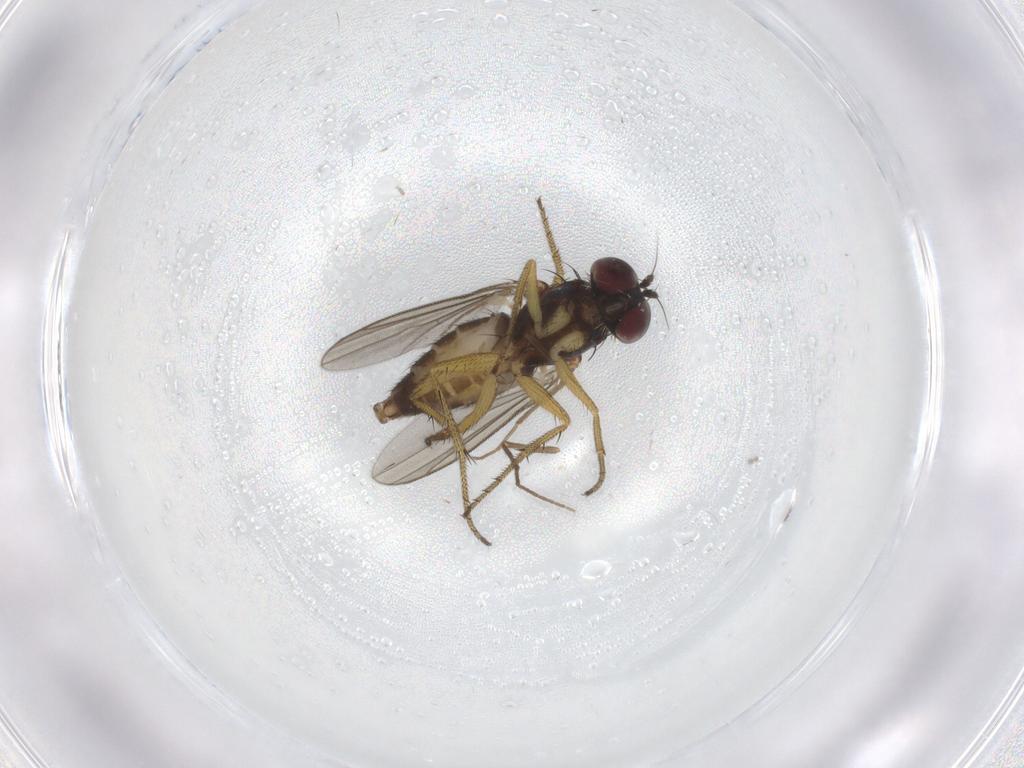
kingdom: Animalia
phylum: Arthropoda
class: Insecta
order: Diptera
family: Chironomidae
